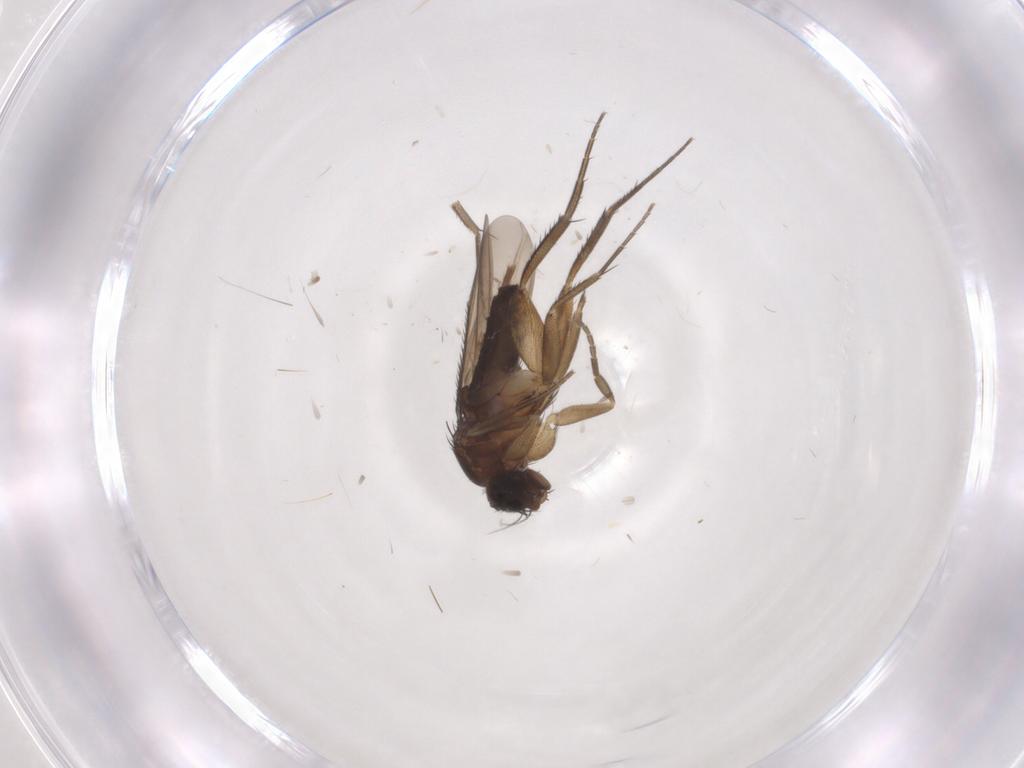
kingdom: Animalia
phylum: Arthropoda
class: Insecta
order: Diptera
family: Phoridae
